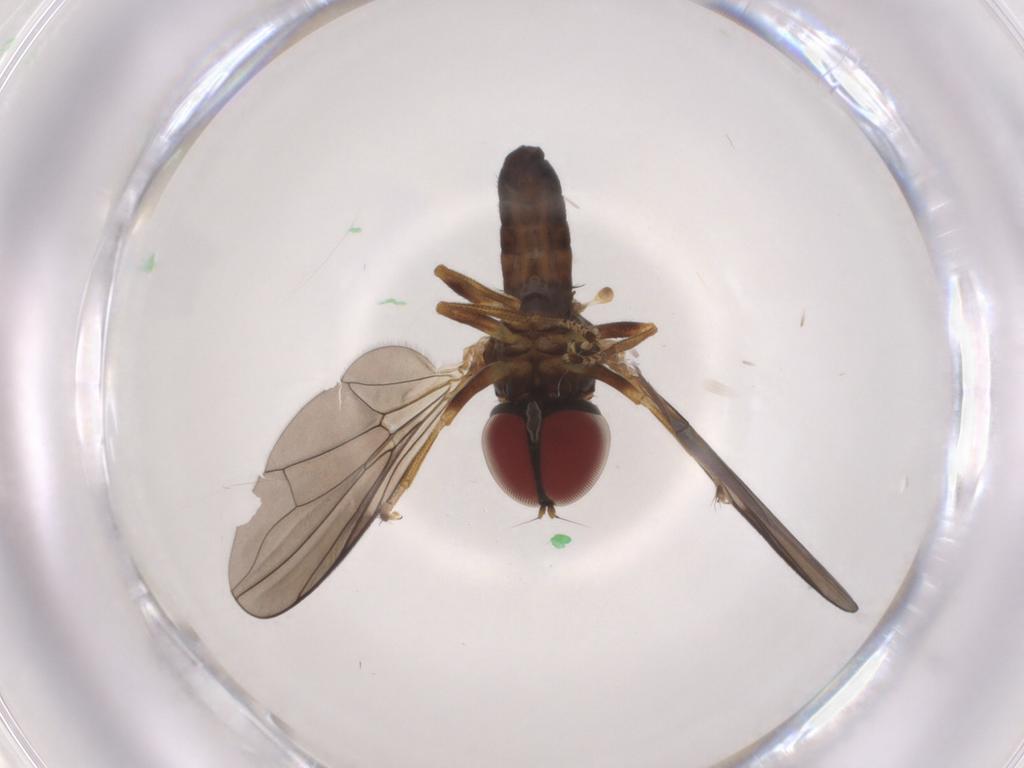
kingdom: Animalia
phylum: Arthropoda
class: Insecta
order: Diptera
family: Pipunculidae
